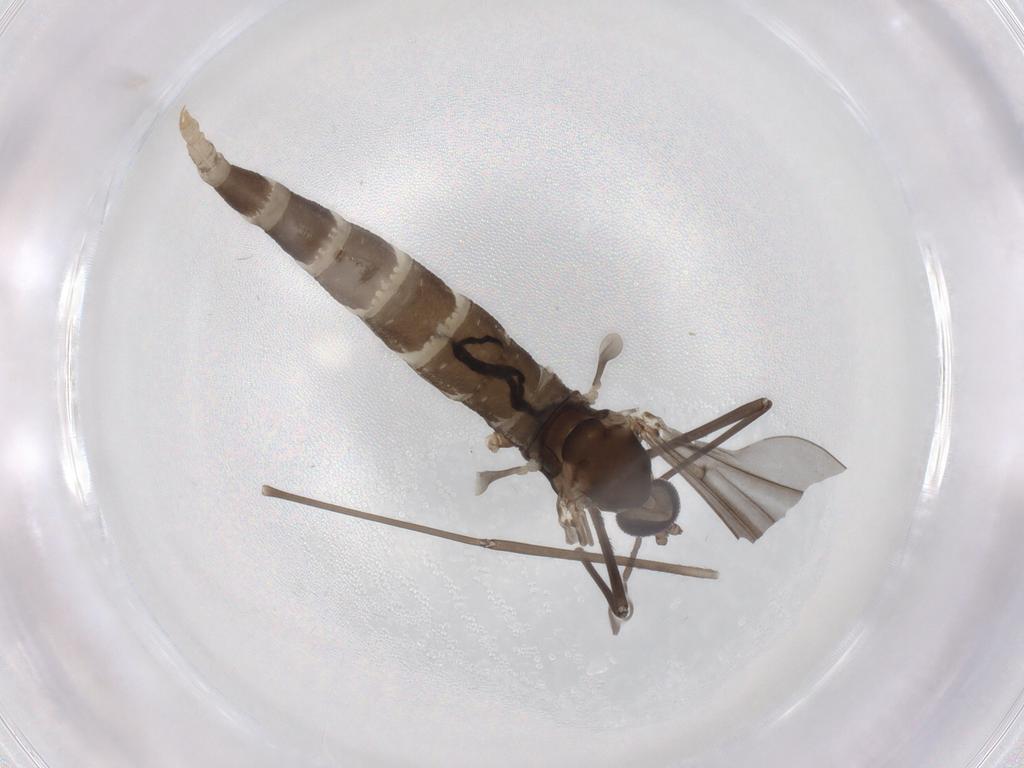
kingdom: Animalia
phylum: Arthropoda
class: Insecta
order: Diptera
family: Cecidomyiidae
